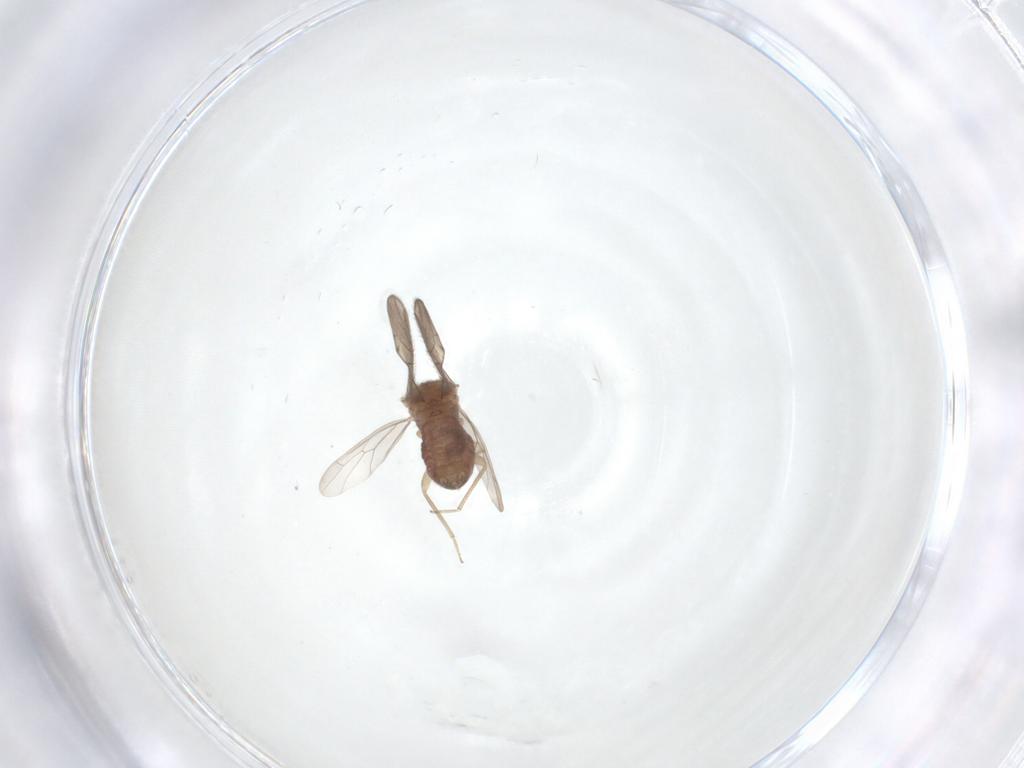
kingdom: Animalia
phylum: Arthropoda
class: Insecta
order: Psocodea
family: Ectopsocidae
